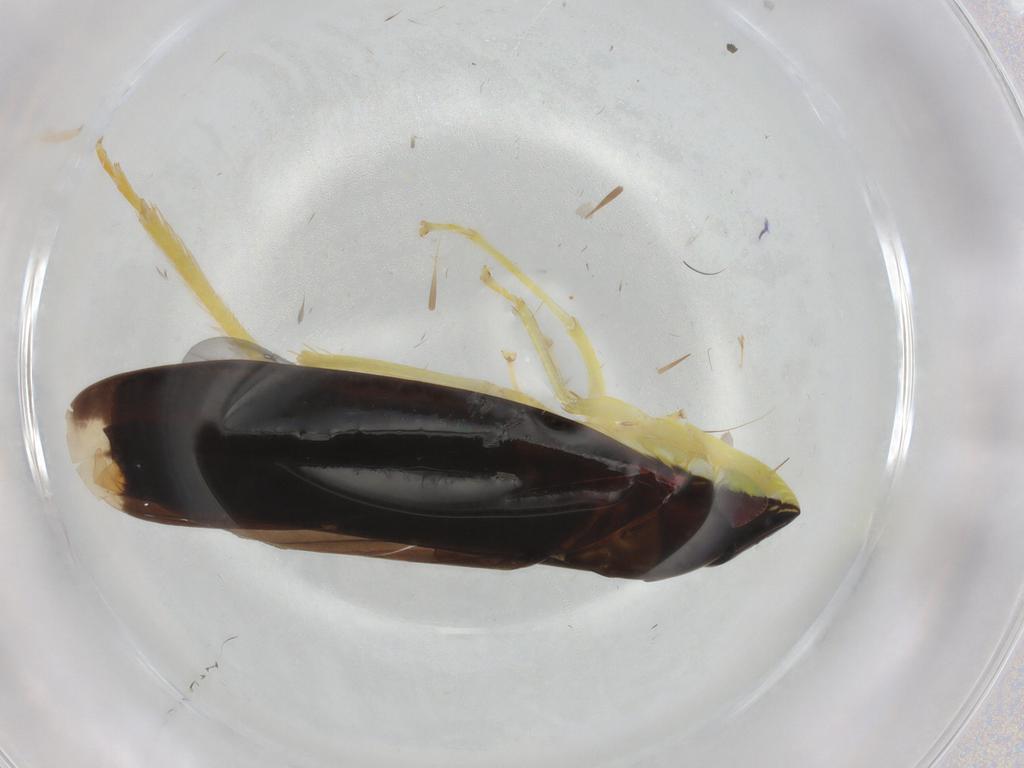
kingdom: Animalia
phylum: Arthropoda
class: Insecta
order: Hemiptera
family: Cicadellidae
